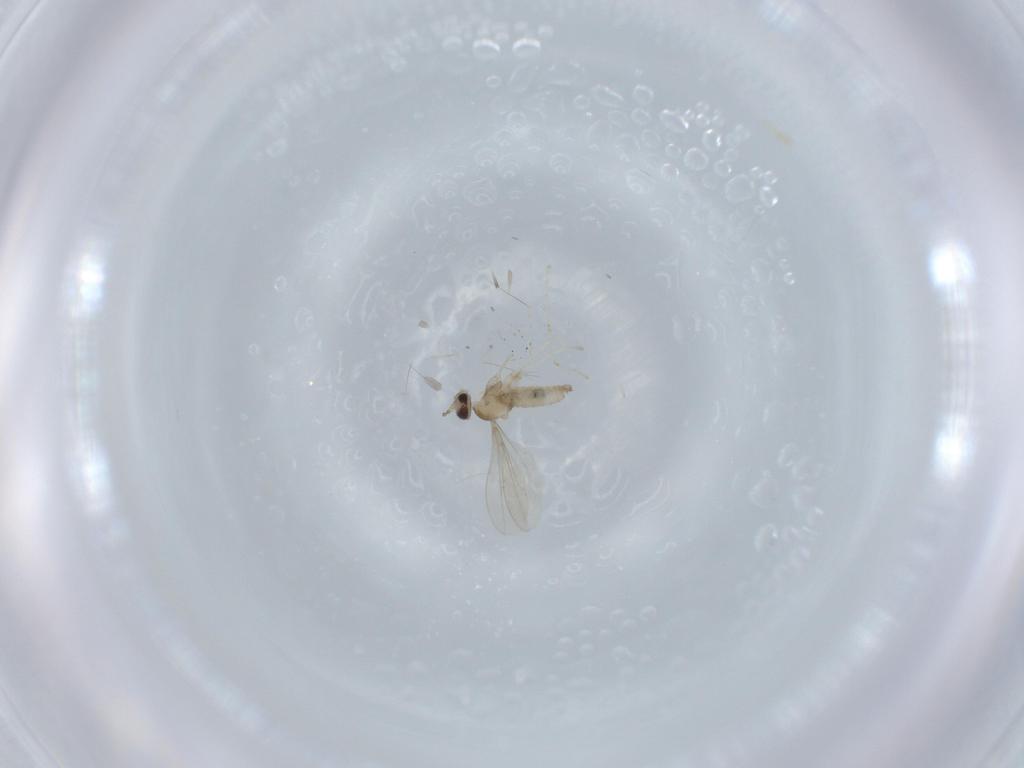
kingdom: Animalia
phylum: Arthropoda
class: Insecta
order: Diptera
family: Cecidomyiidae
